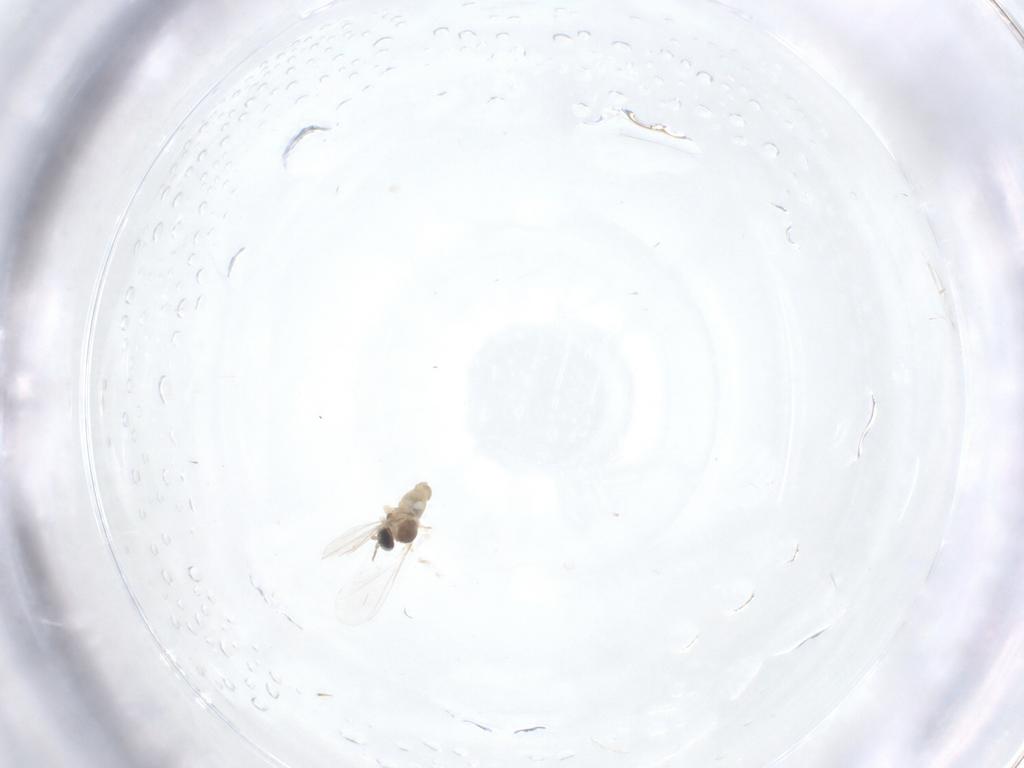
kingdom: Animalia
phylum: Arthropoda
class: Insecta
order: Diptera
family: Cecidomyiidae
